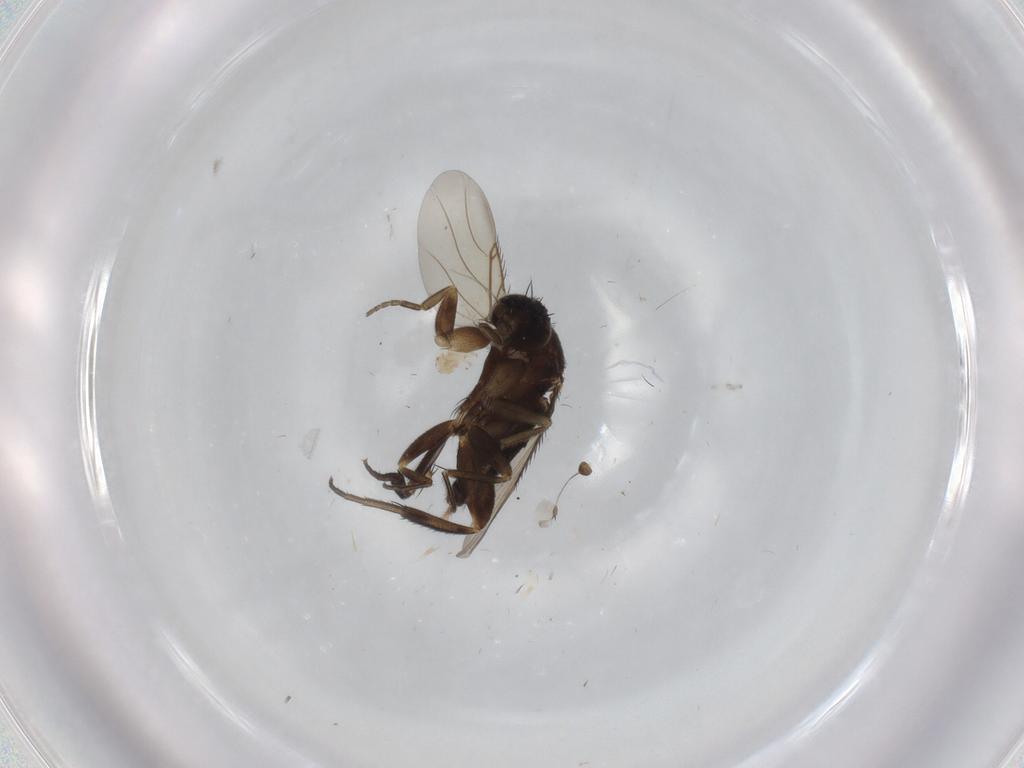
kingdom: Animalia
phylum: Arthropoda
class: Insecta
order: Diptera
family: Phoridae
